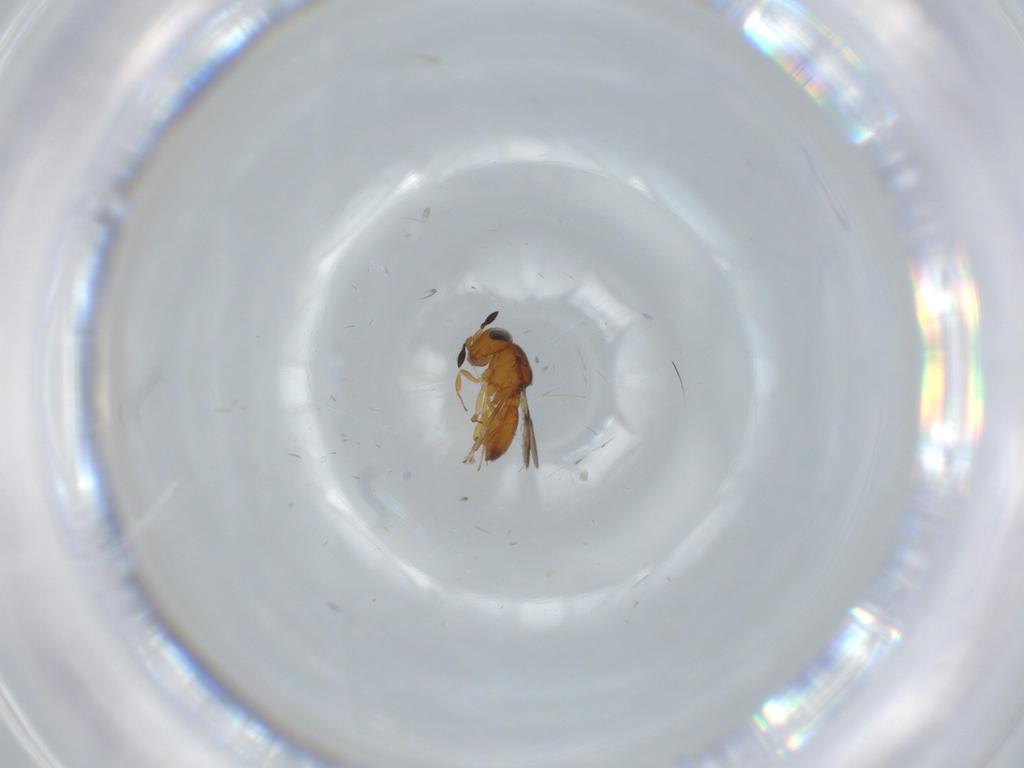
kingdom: Animalia
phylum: Arthropoda
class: Insecta
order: Hymenoptera
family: Scelionidae
